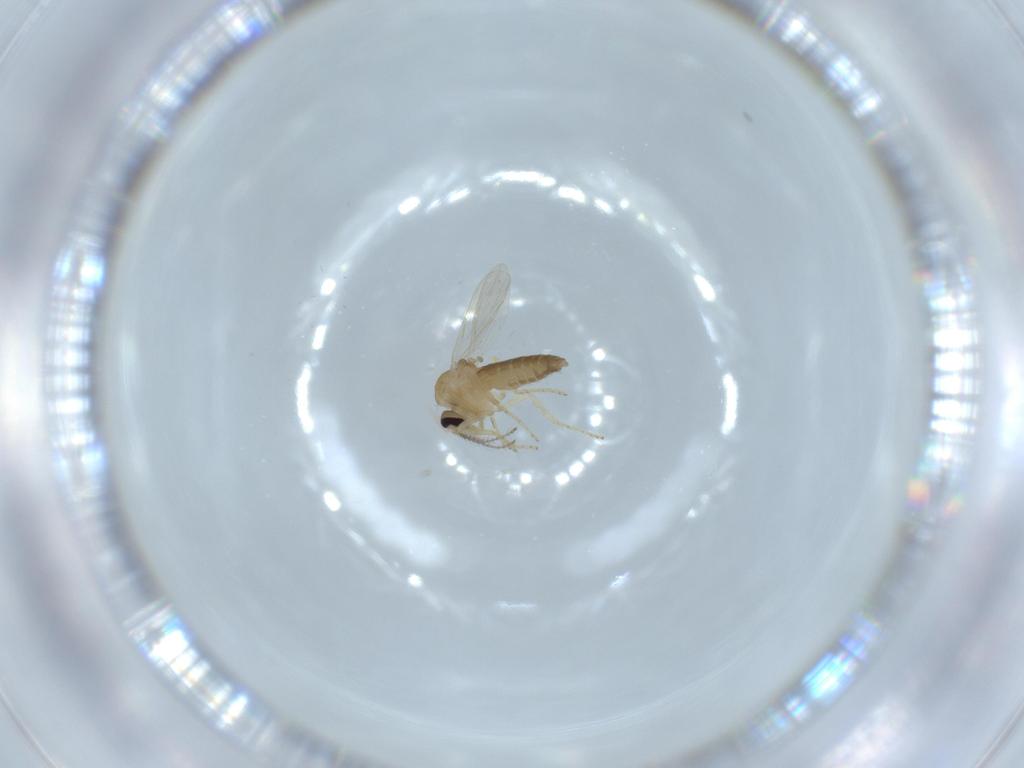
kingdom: Animalia
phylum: Arthropoda
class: Insecta
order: Diptera
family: Ceratopogonidae
